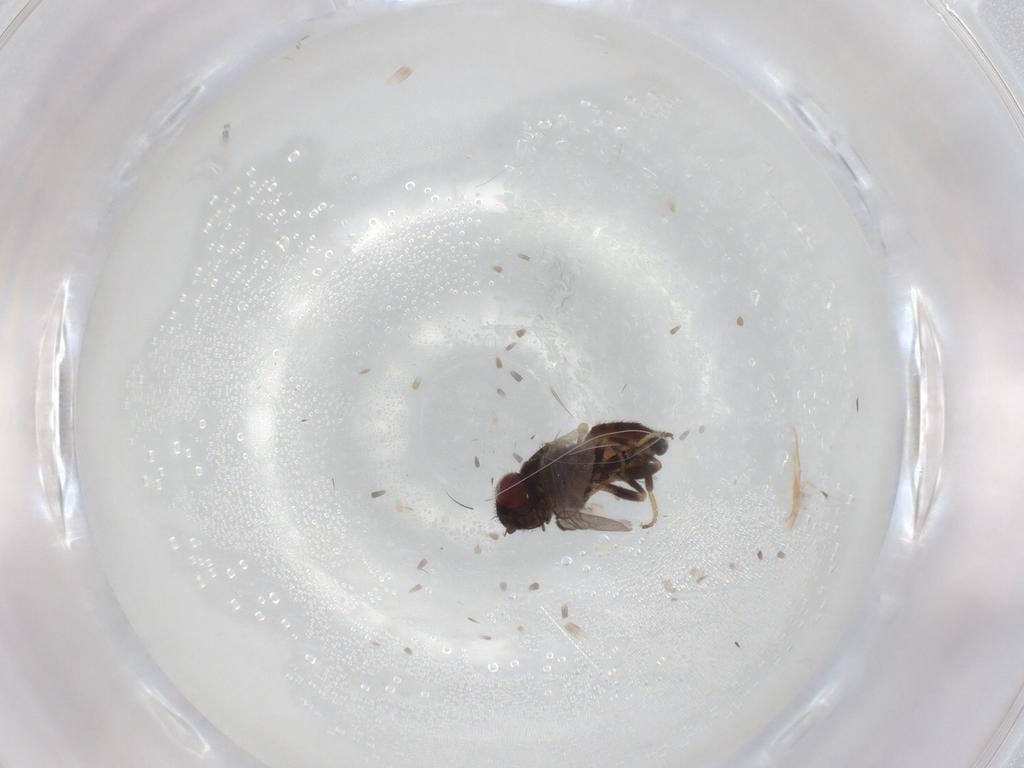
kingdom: Animalia
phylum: Arthropoda
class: Insecta
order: Diptera
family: Chloropidae
